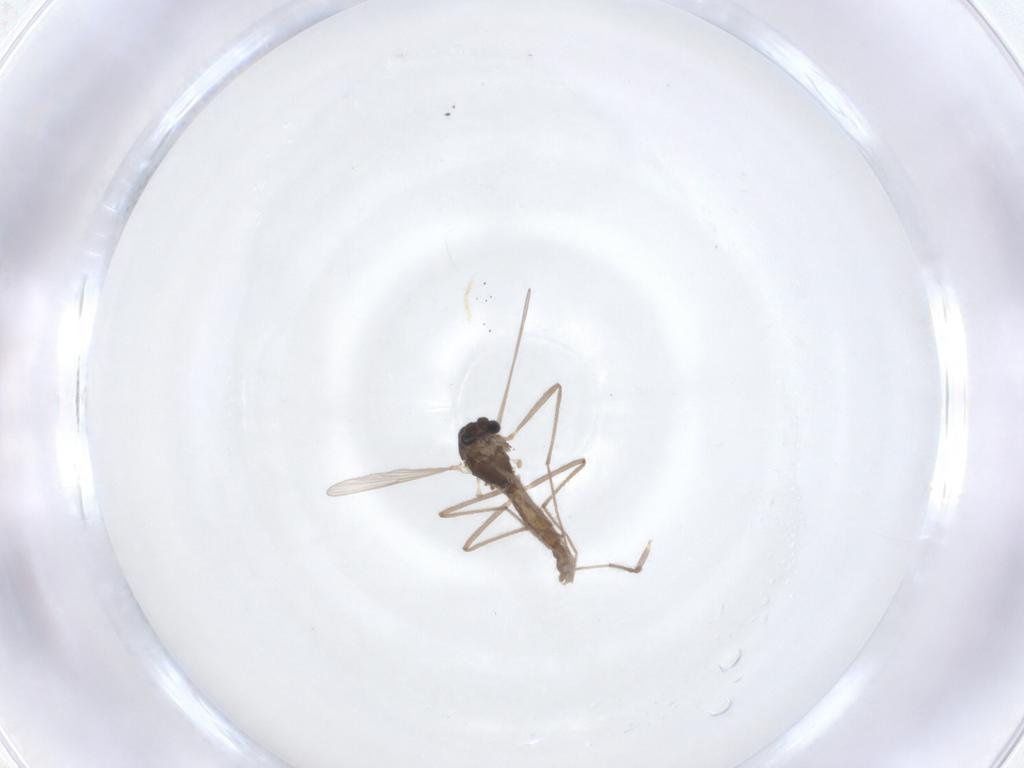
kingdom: Animalia
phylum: Arthropoda
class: Insecta
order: Diptera
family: Chironomidae
